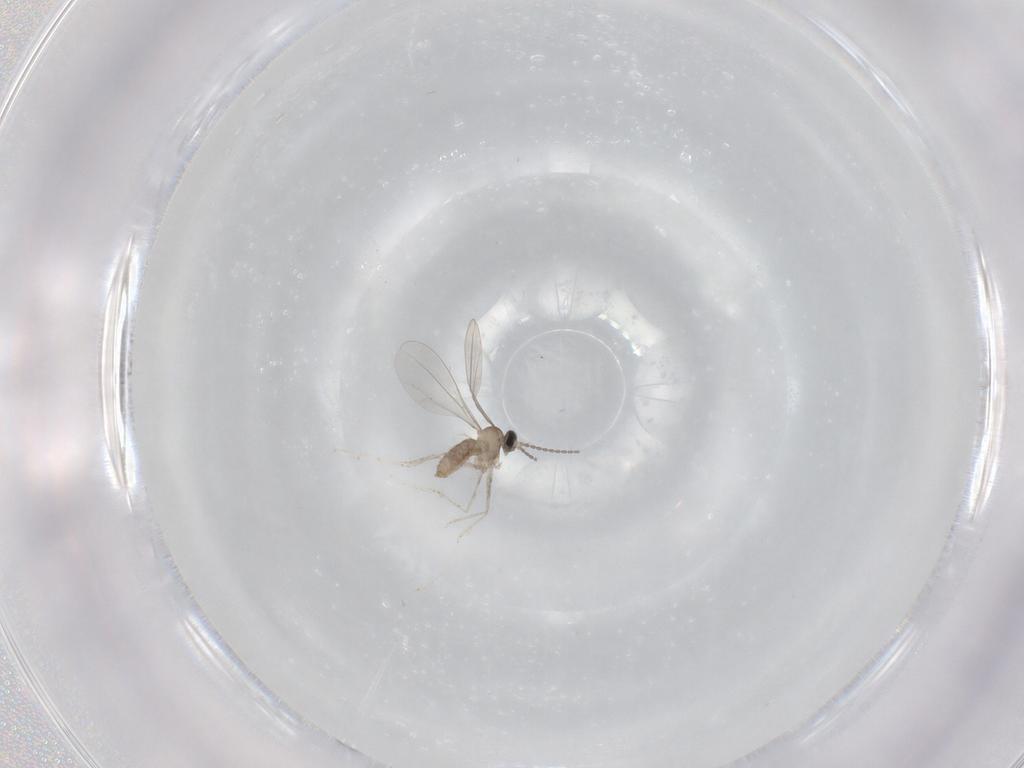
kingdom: Animalia
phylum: Arthropoda
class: Insecta
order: Diptera
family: Cecidomyiidae
